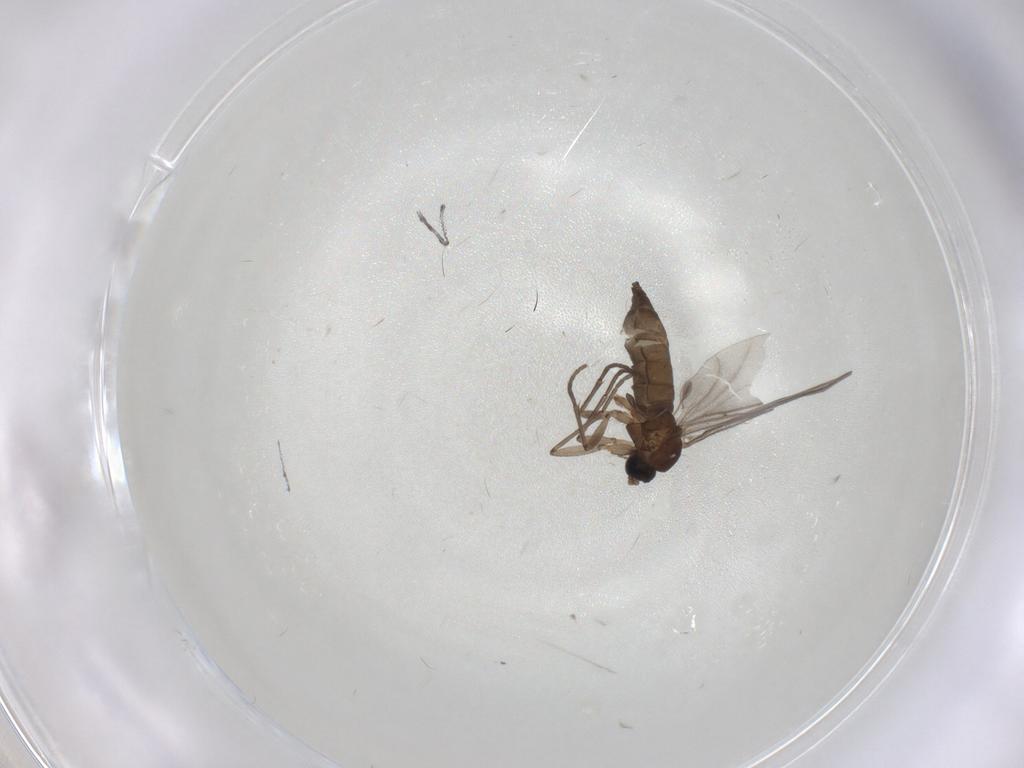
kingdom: Animalia
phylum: Arthropoda
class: Insecta
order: Diptera
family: Sciaridae
